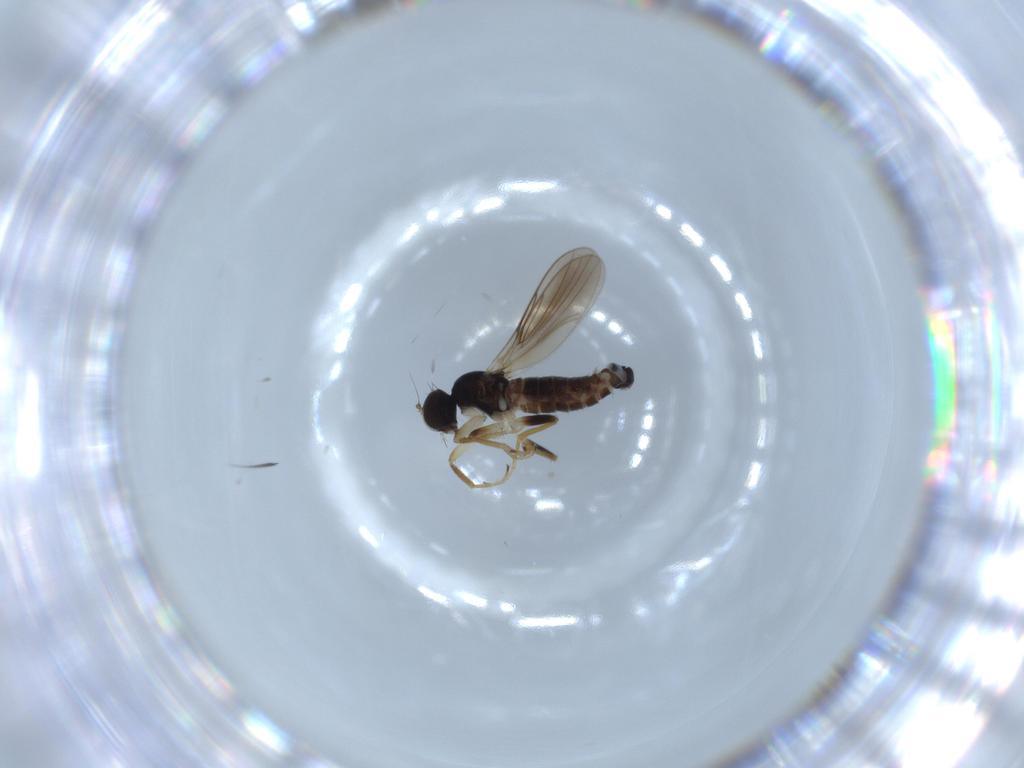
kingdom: Animalia
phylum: Arthropoda
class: Insecta
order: Diptera
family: Hybotidae
